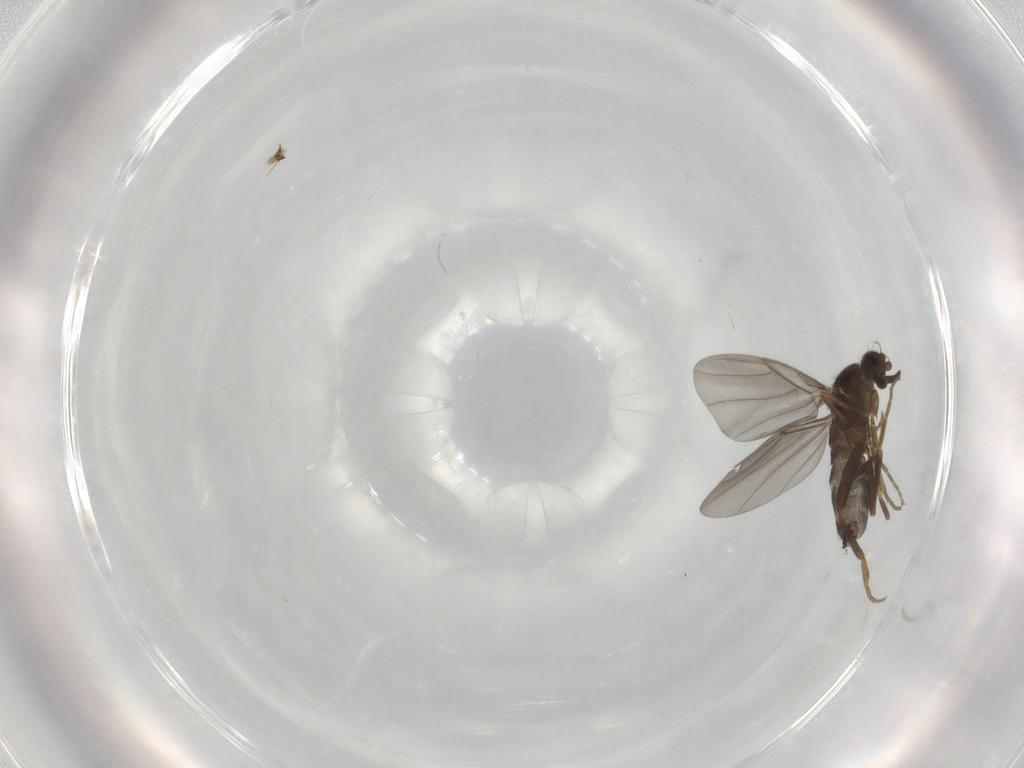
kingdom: Animalia
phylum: Arthropoda
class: Insecta
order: Diptera
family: Phoridae
